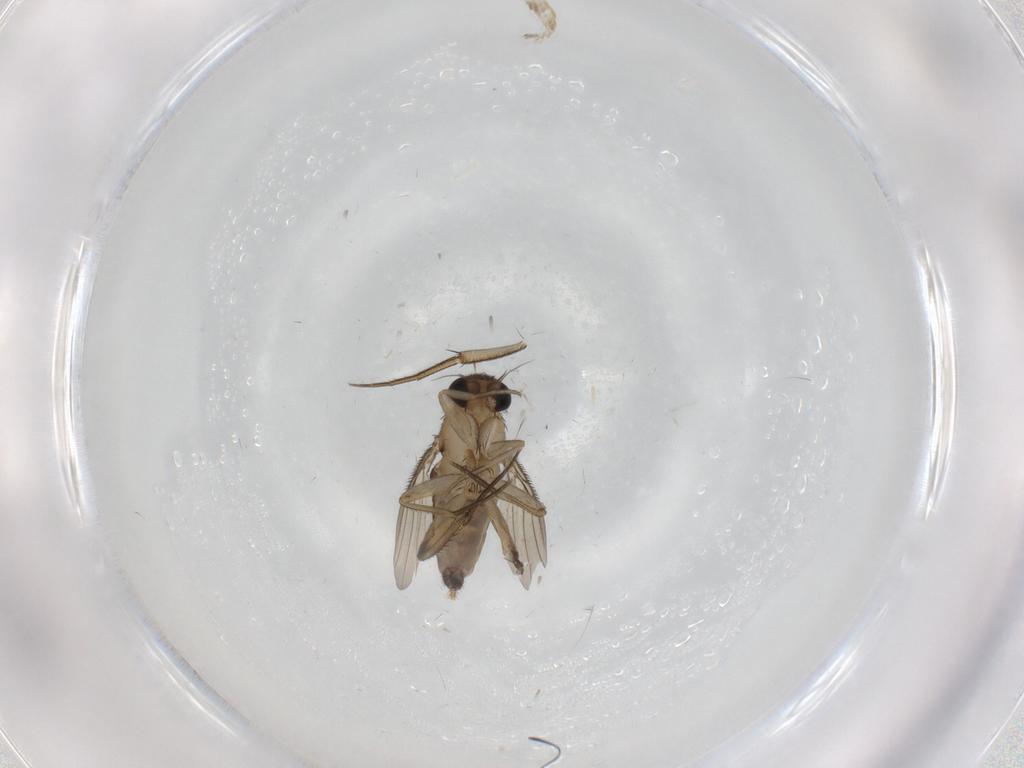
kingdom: Animalia
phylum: Arthropoda
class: Insecta
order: Diptera
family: Phoridae
